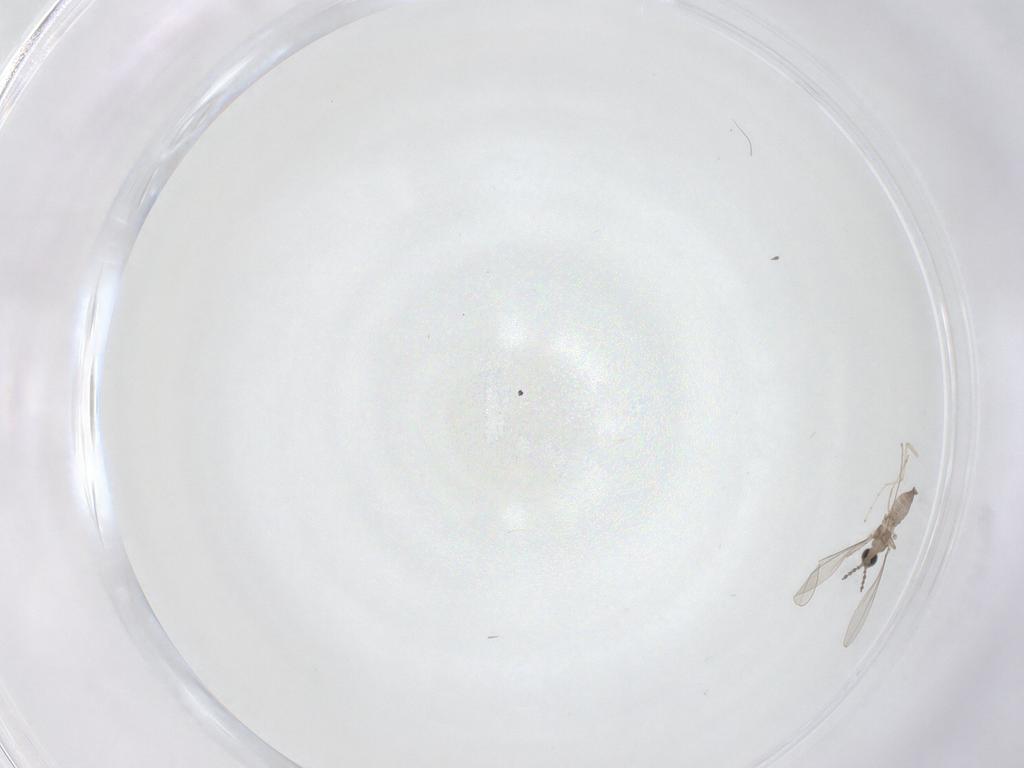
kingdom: Animalia
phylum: Arthropoda
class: Insecta
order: Diptera
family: Cecidomyiidae
